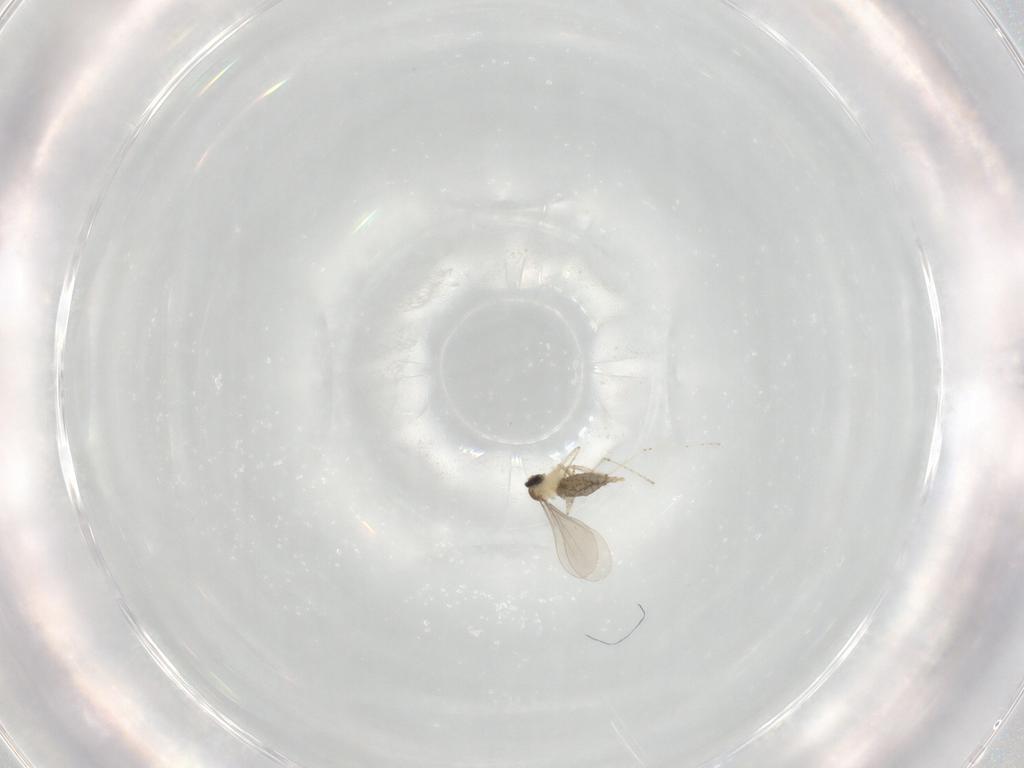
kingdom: Animalia
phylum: Arthropoda
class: Insecta
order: Diptera
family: Cecidomyiidae
